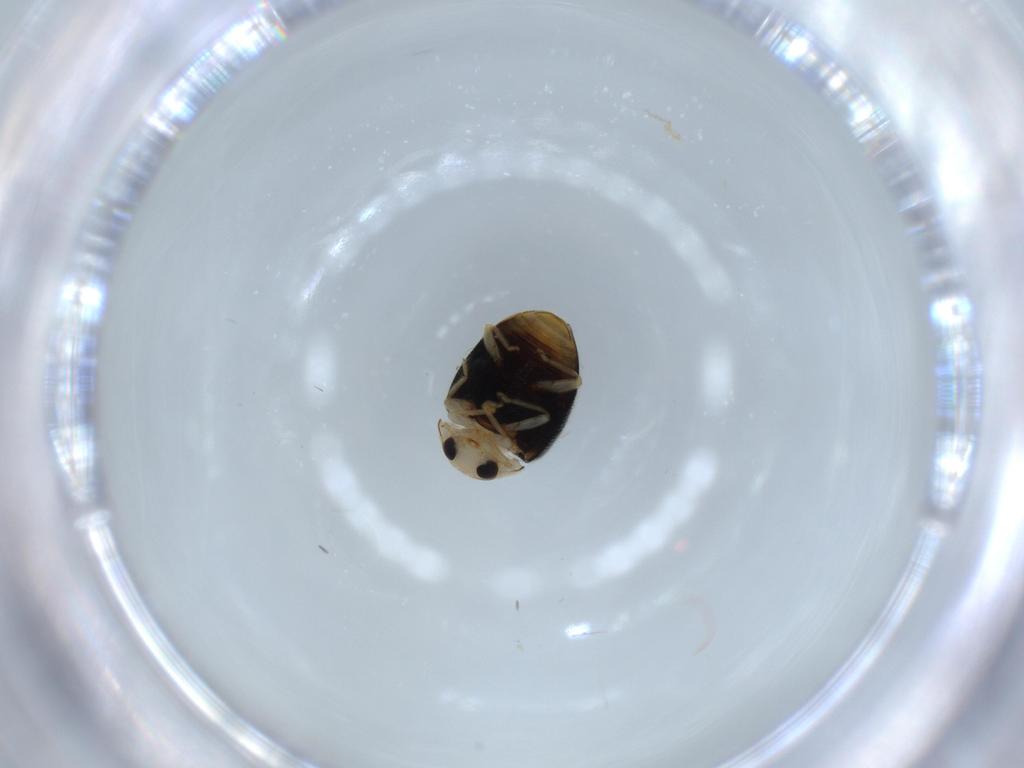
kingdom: Animalia
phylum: Arthropoda
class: Insecta
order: Coleoptera
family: Coccinellidae
